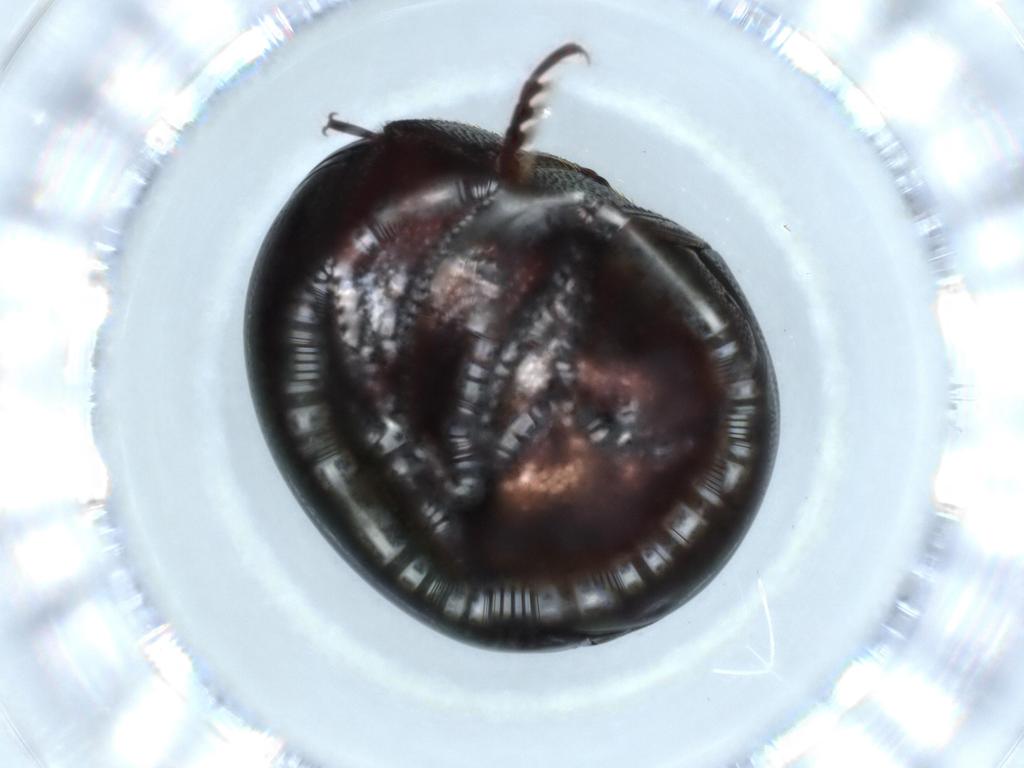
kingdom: Animalia
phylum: Arthropoda
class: Insecta
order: Coleoptera
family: Hybosoridae
